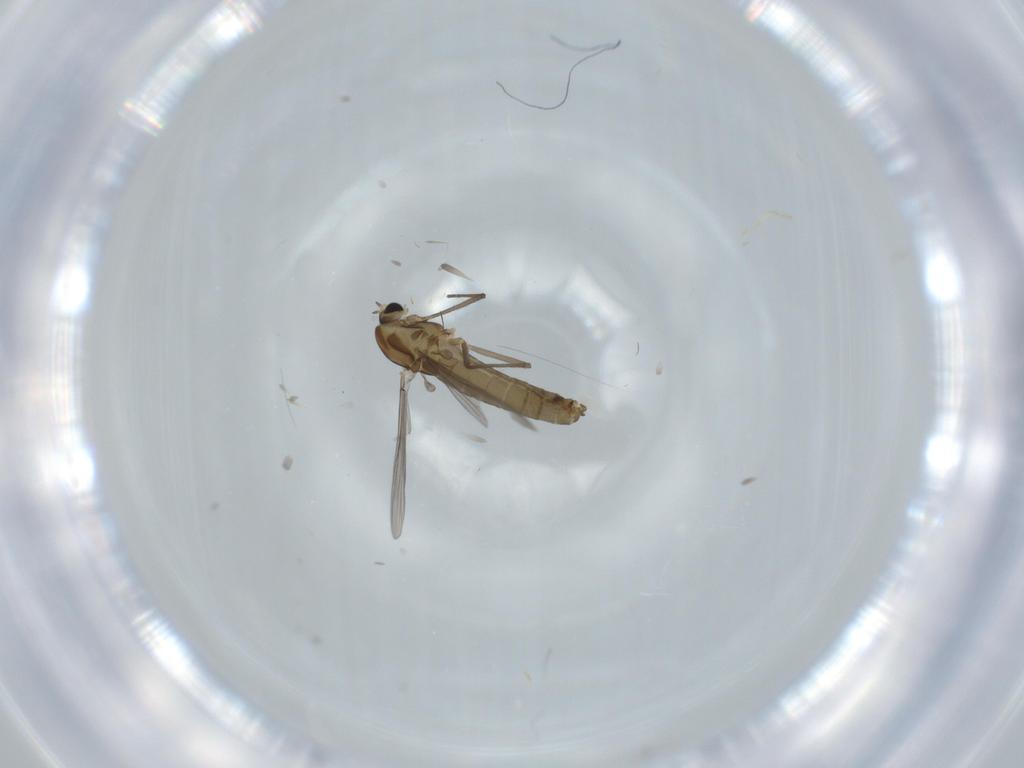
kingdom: Animalia
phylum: Arthropoda
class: Insecta
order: Diptera
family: Chironomidae
